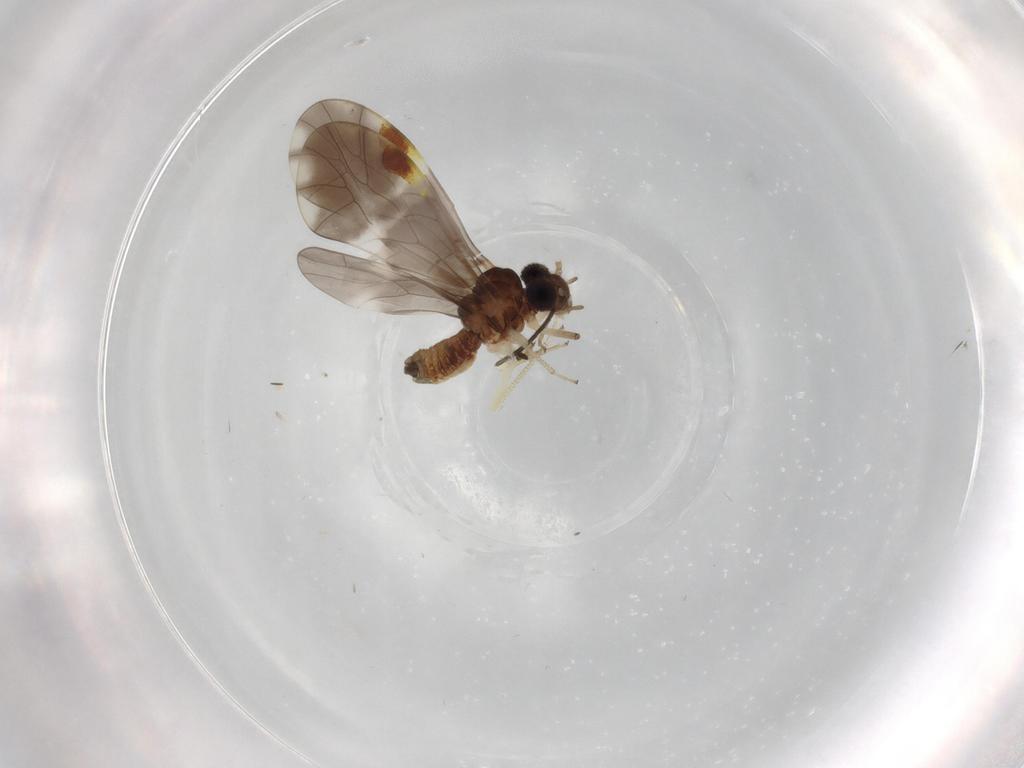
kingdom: Animalia
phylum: Arthropoda
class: Insecta
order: Psocodea
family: Peripsocidae
